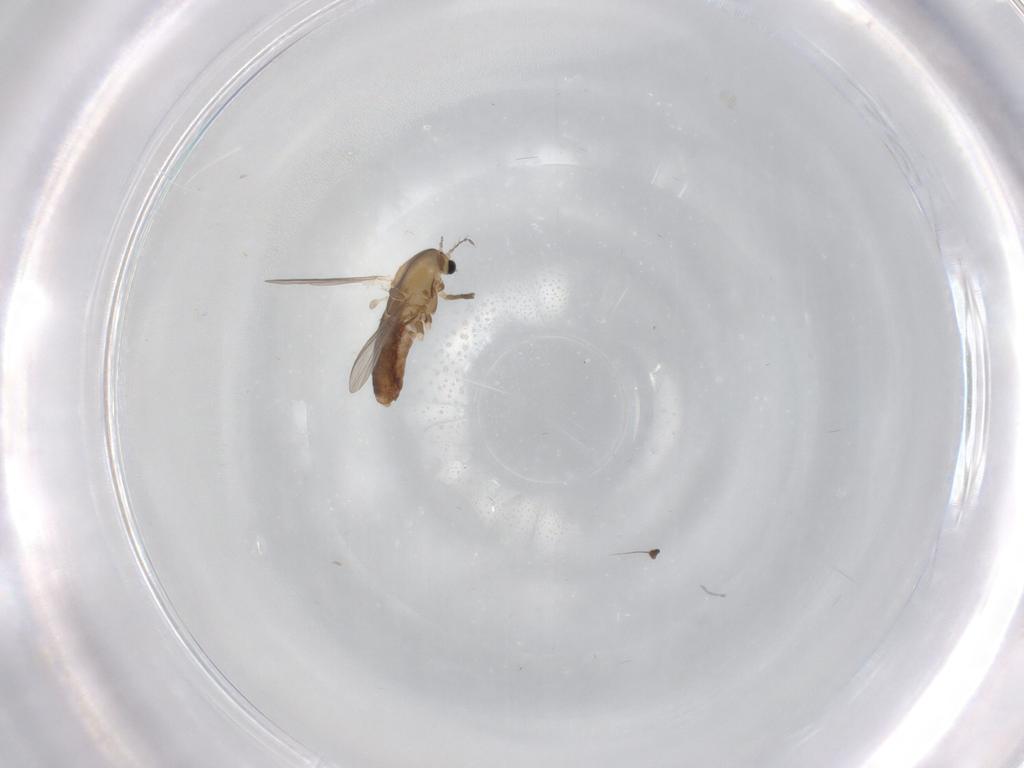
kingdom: Animalia
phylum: Arthropoda
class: Insecta
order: Diptera
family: Chironomidae
